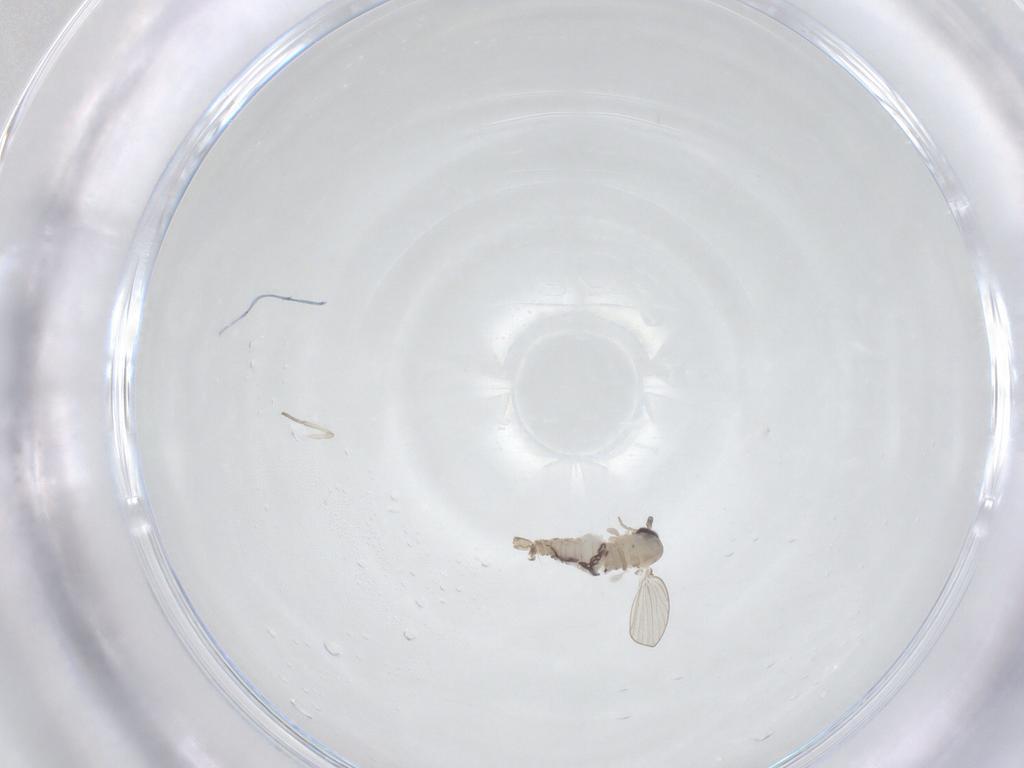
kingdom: Animalia
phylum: Arthropoda
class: Insecta
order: Diptera
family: Psychodidae
